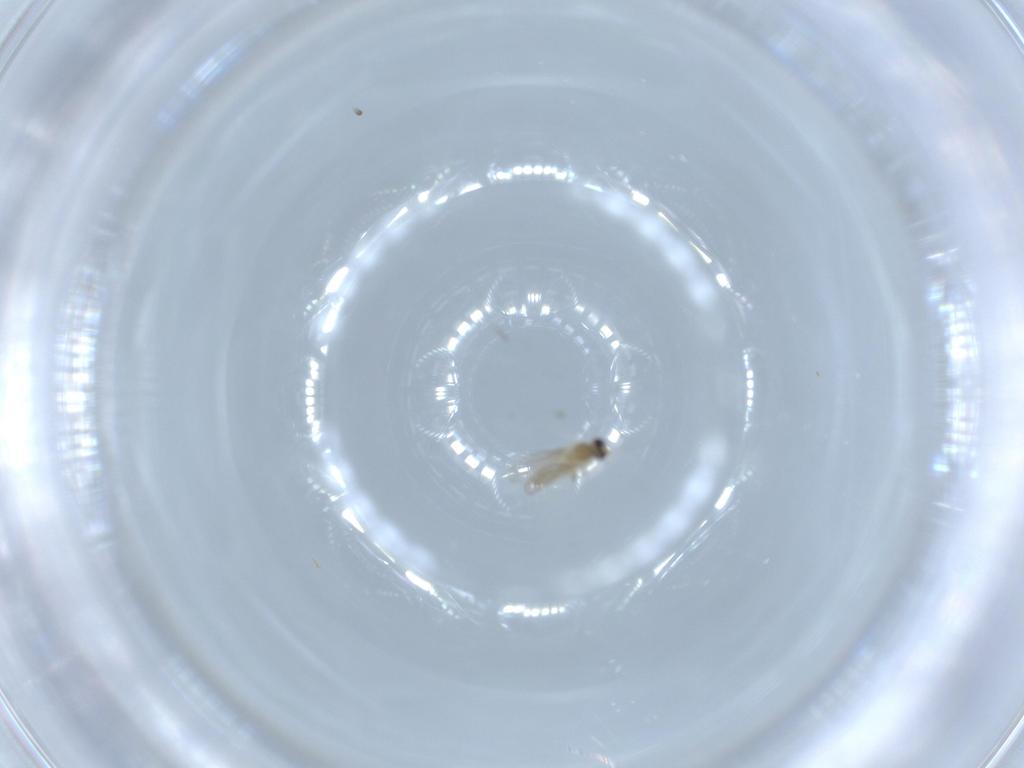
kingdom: Animalia
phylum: Arthropoda
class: Insecta
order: Diptera
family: Cecidomyiidae
